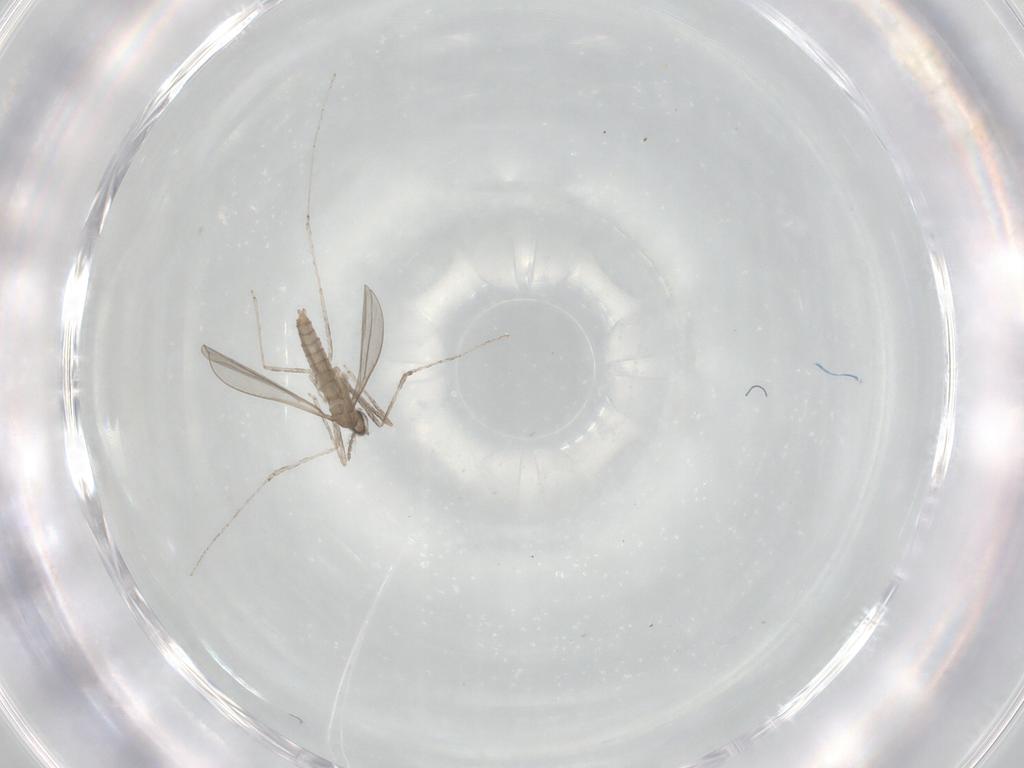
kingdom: Animalia
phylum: Arthropoda
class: Insecta
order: Diptera
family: Cecidomyiidae
